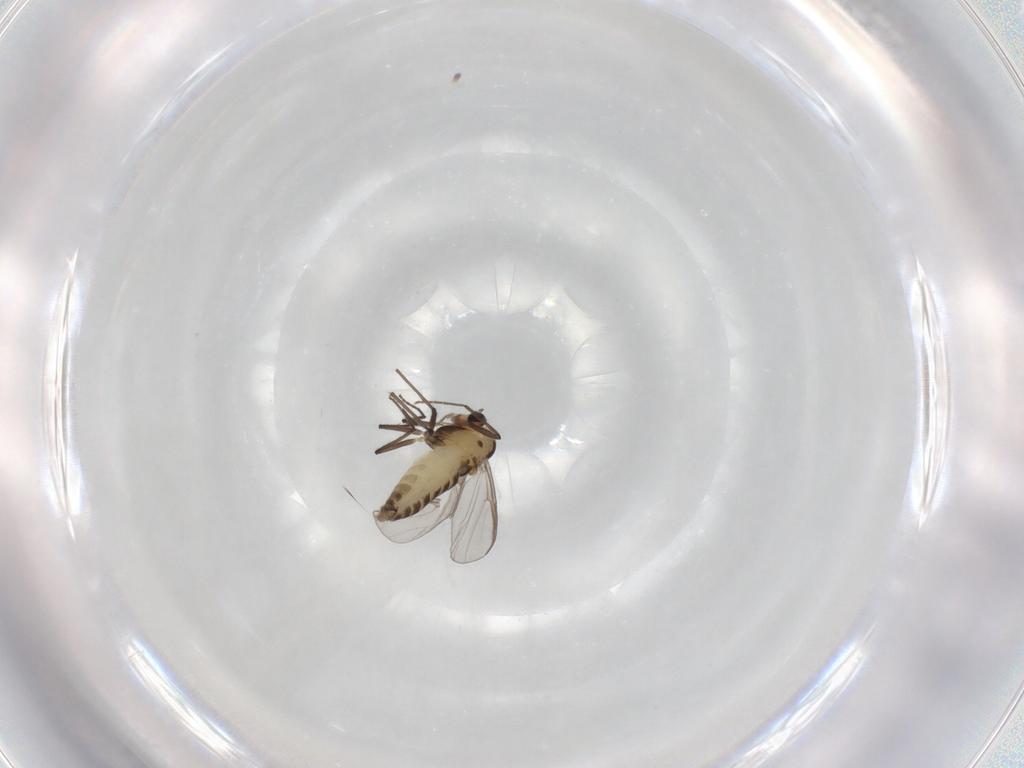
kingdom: Animalia
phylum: Arthropoda
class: Insecta
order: Diptera
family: Chironomidae
